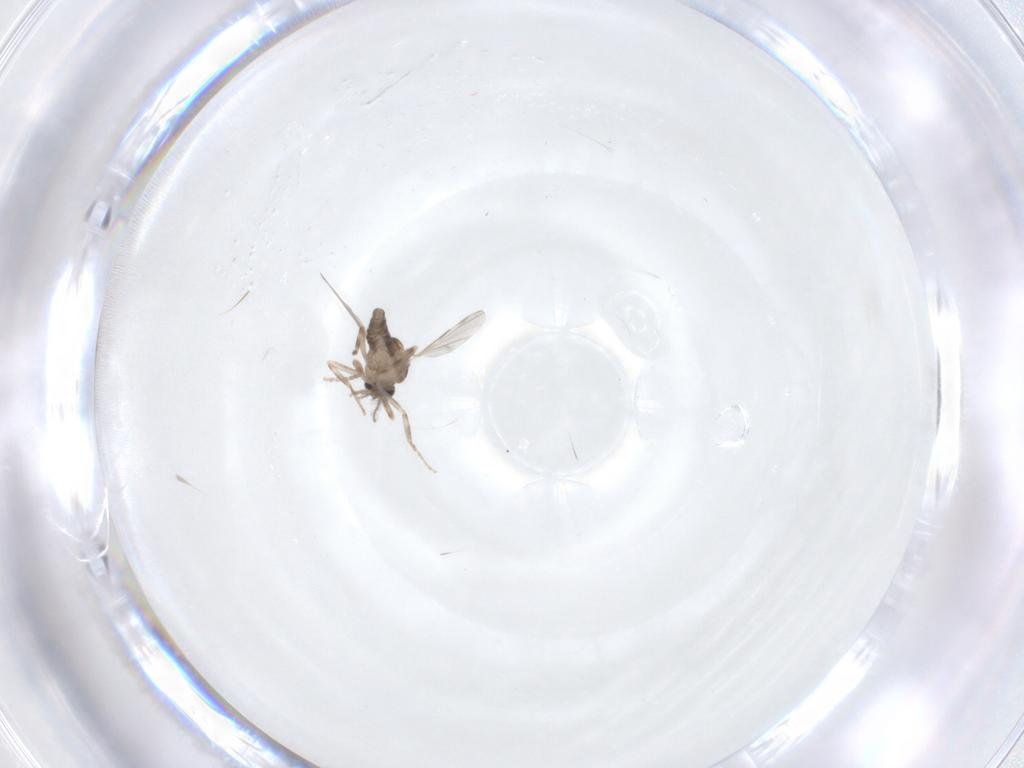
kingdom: Animalia
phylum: Arthropoda
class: Insecta
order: Diptera
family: Ceratopogonidae
